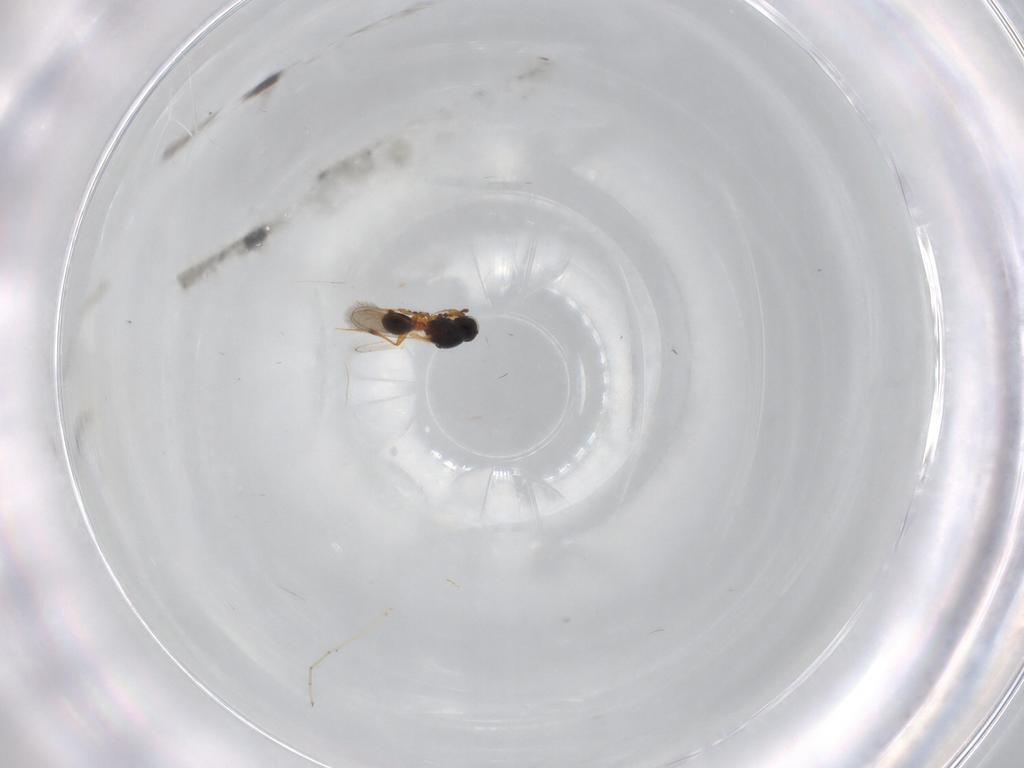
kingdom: Animalia
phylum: Arthropoda
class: Insecta
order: Hymenoptera
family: Platygastridae
